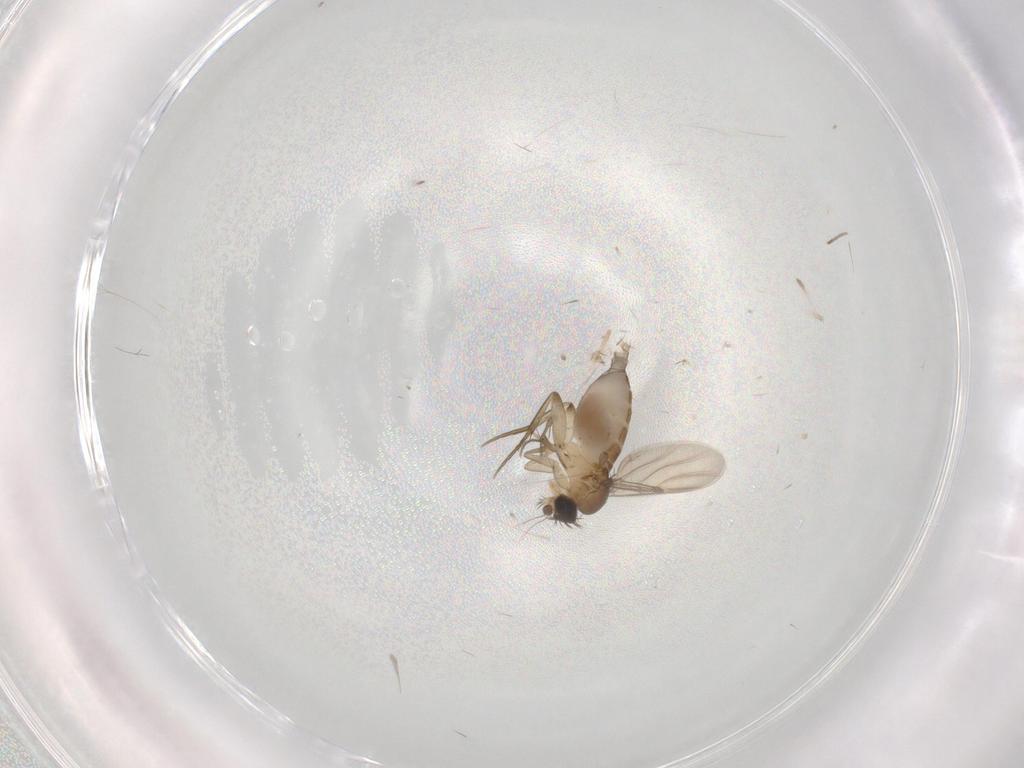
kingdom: Animalia
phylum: Arthropoda
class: Insecta
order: Diptera
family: Phoridae
